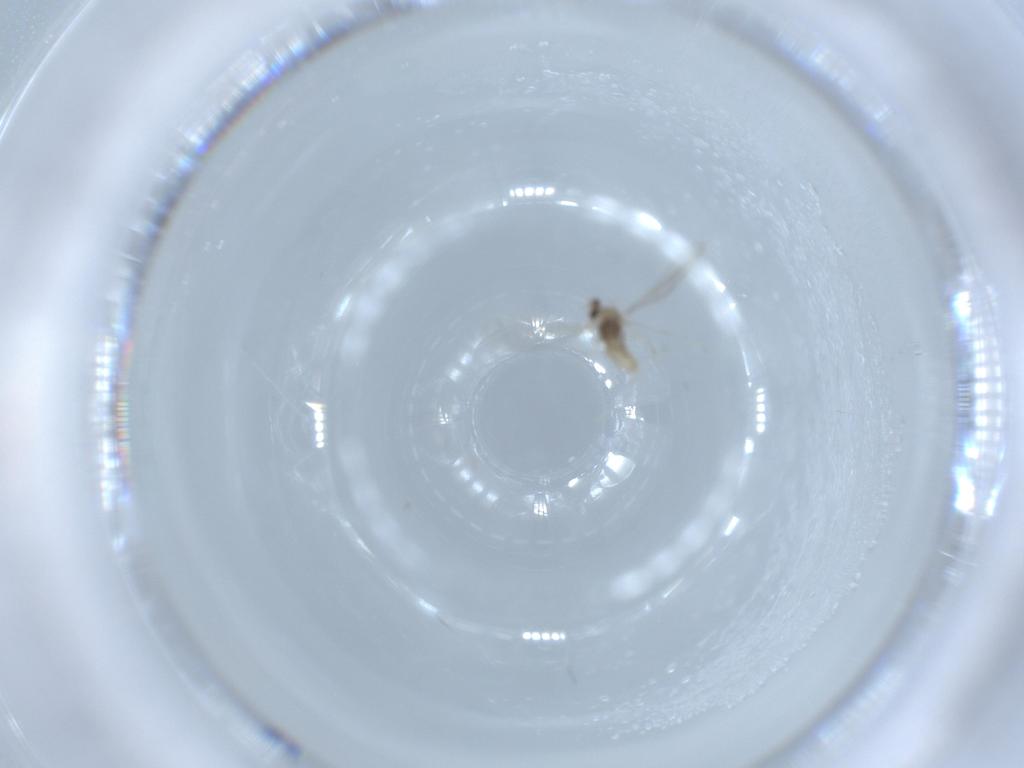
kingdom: Animalia
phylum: Arthropoda
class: Insecta
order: Diptera
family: Cecidomyiidae
